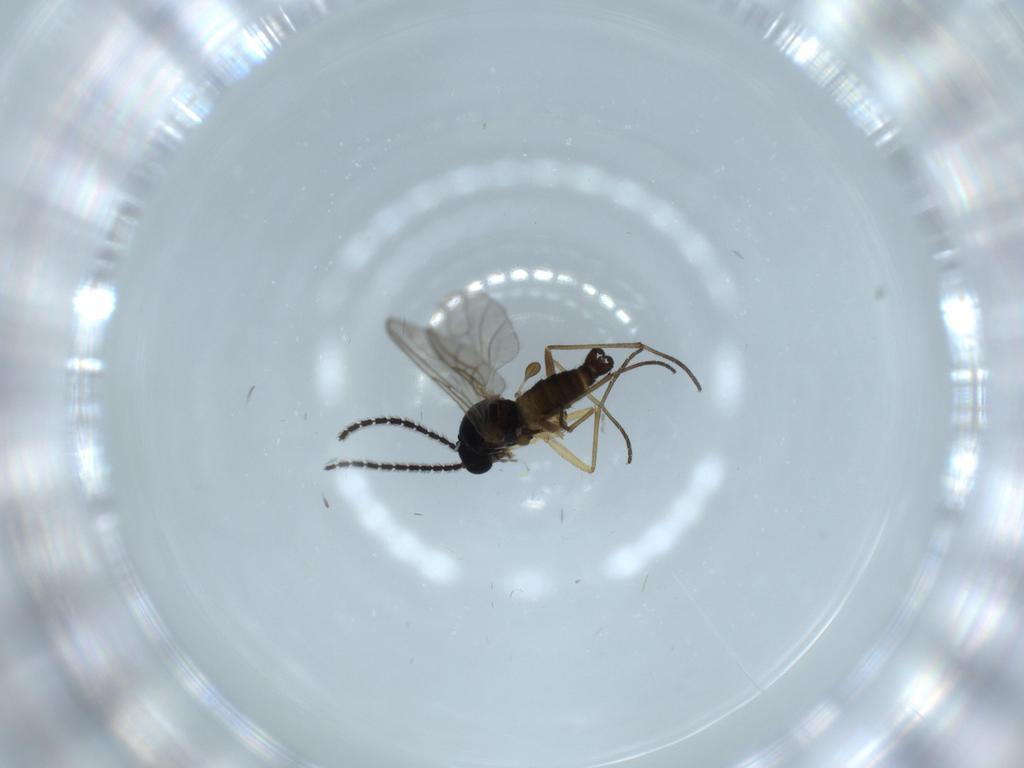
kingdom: Animalia
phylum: Arthropoda
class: Insecta
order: Diptera
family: Sciaridae
